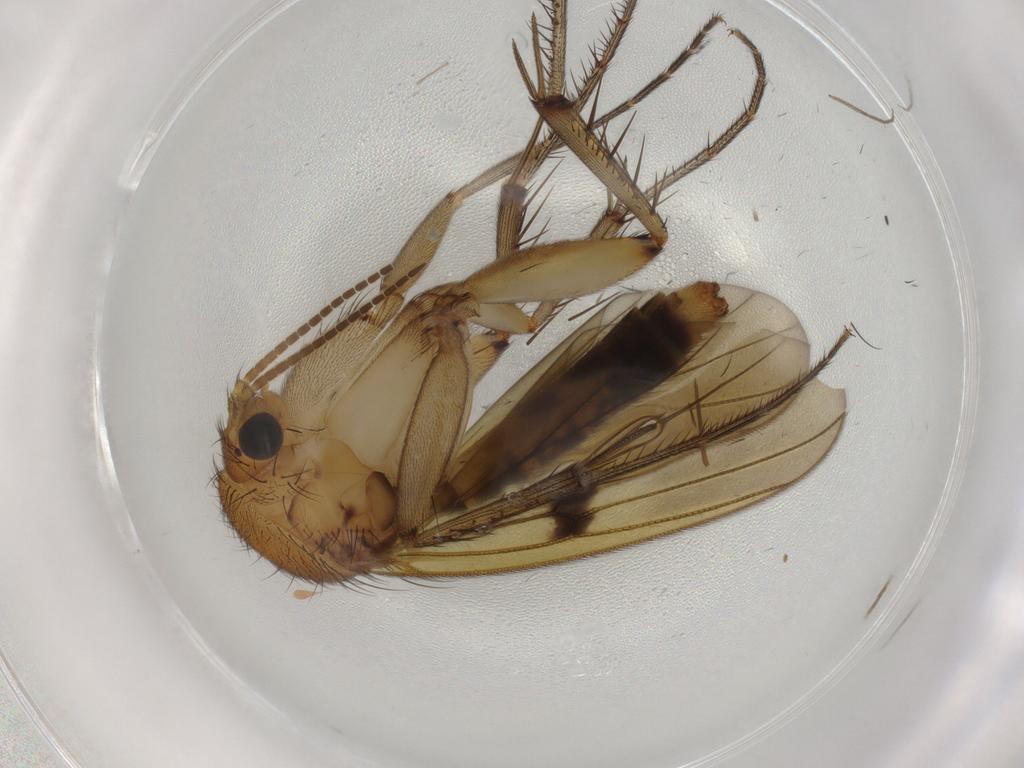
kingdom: Animalia
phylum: Arthropoda
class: Insecta
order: Diptera
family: Mycetophilidae
